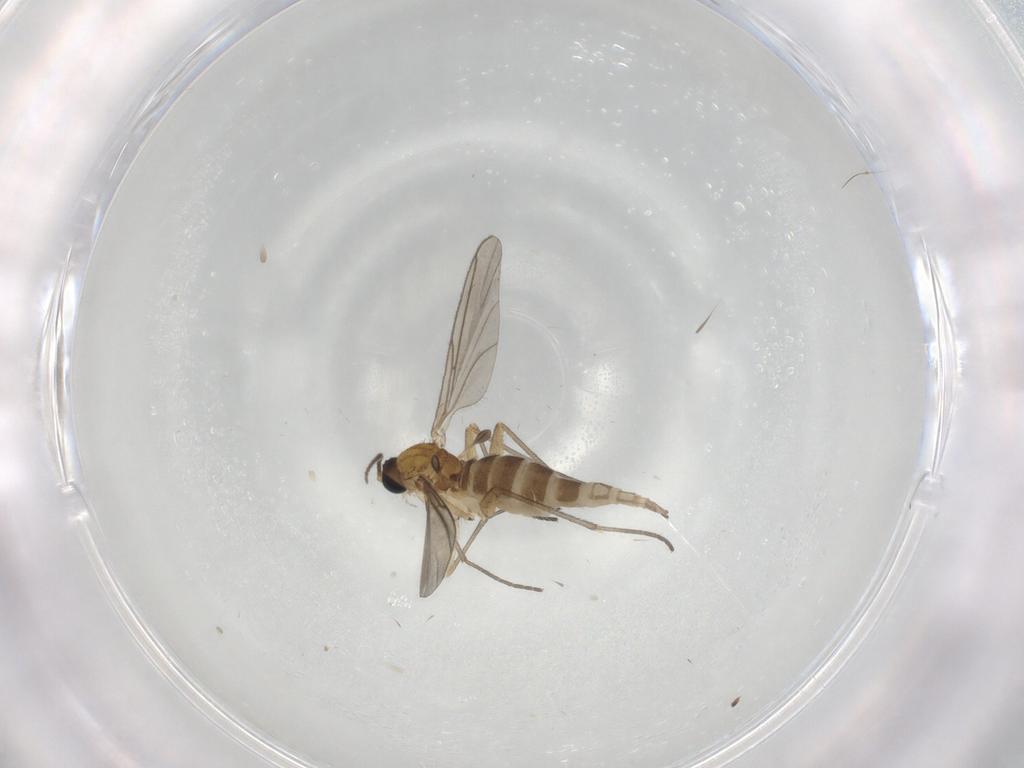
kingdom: Animalia
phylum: Arthropoda
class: Insecta
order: Diptera
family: Sciaridae
